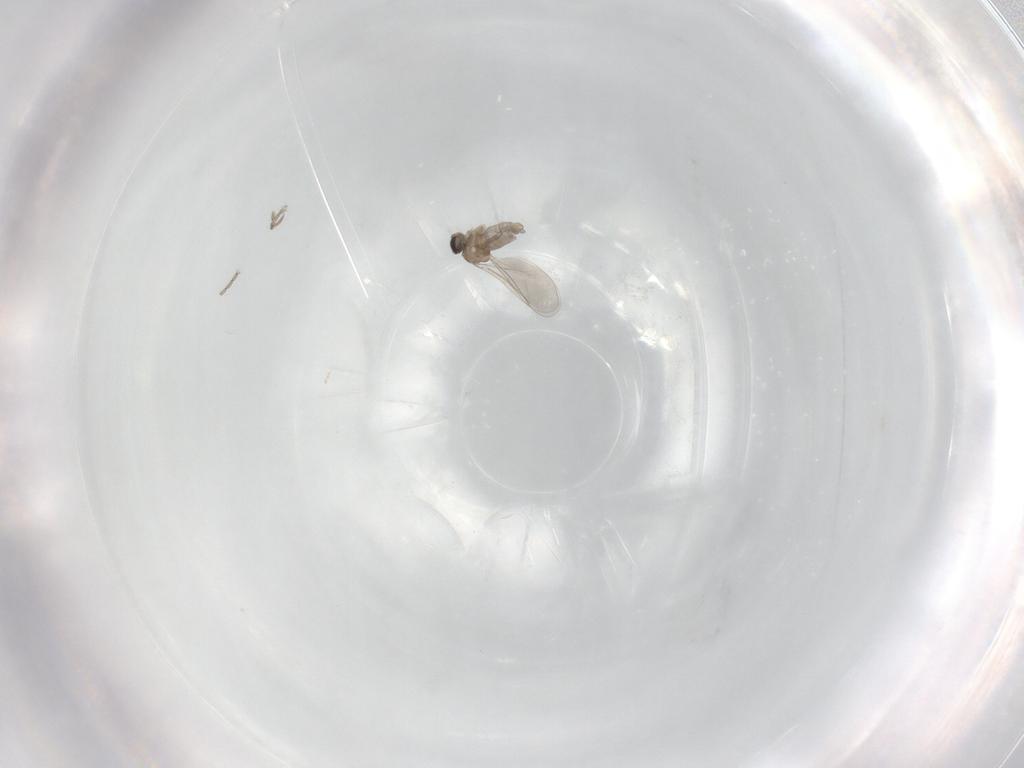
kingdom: Animalia
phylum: Arthropoda
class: Insecta
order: Diptera
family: Cecidomyiidae
